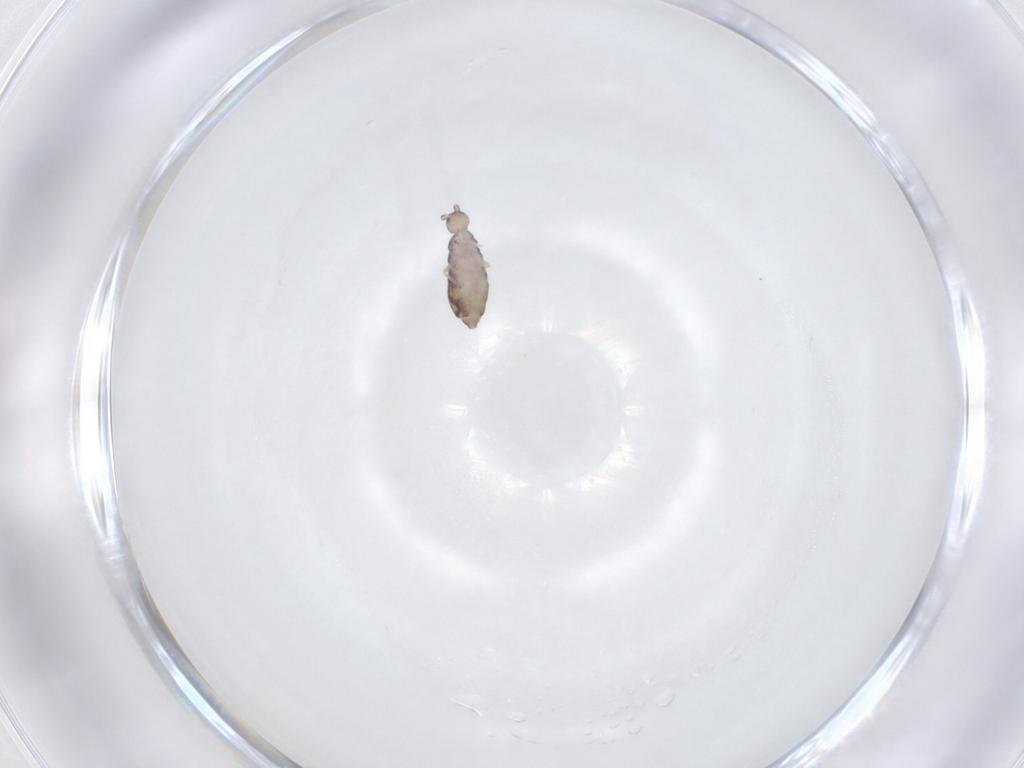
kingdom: Animalia
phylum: Arthropoda
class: Collembola
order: Entomobryomorpha
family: Entomobryidae
